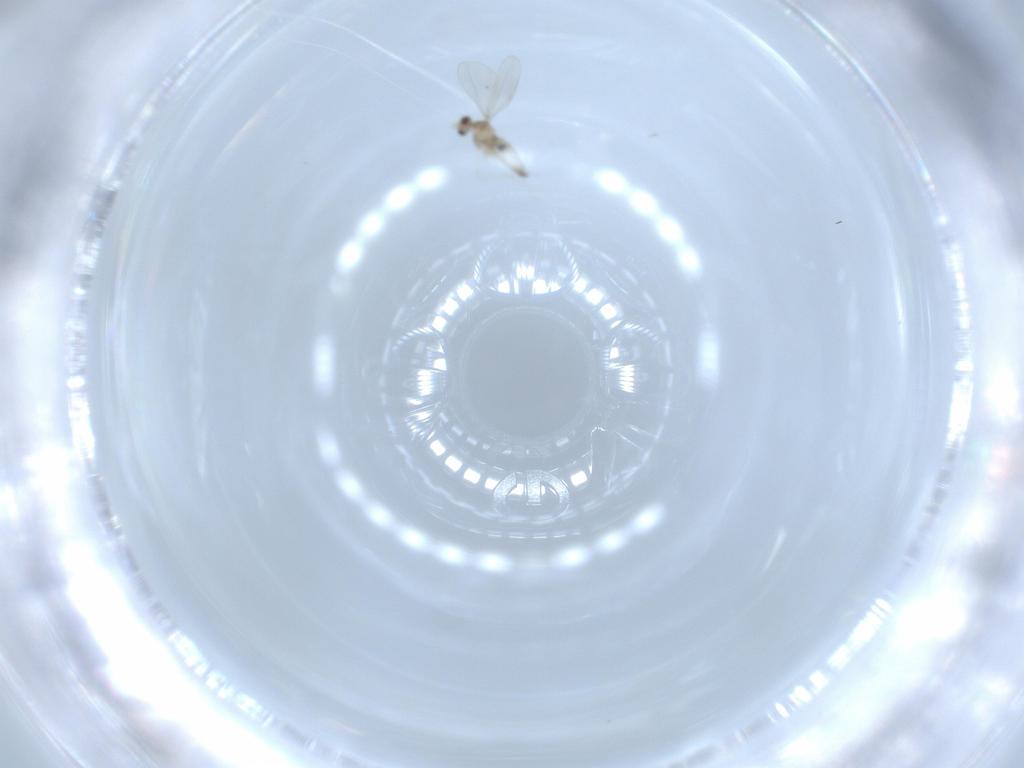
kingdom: Animalia
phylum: Arthropoda
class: Insecta
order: Diptera
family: Cecidomyiidae
